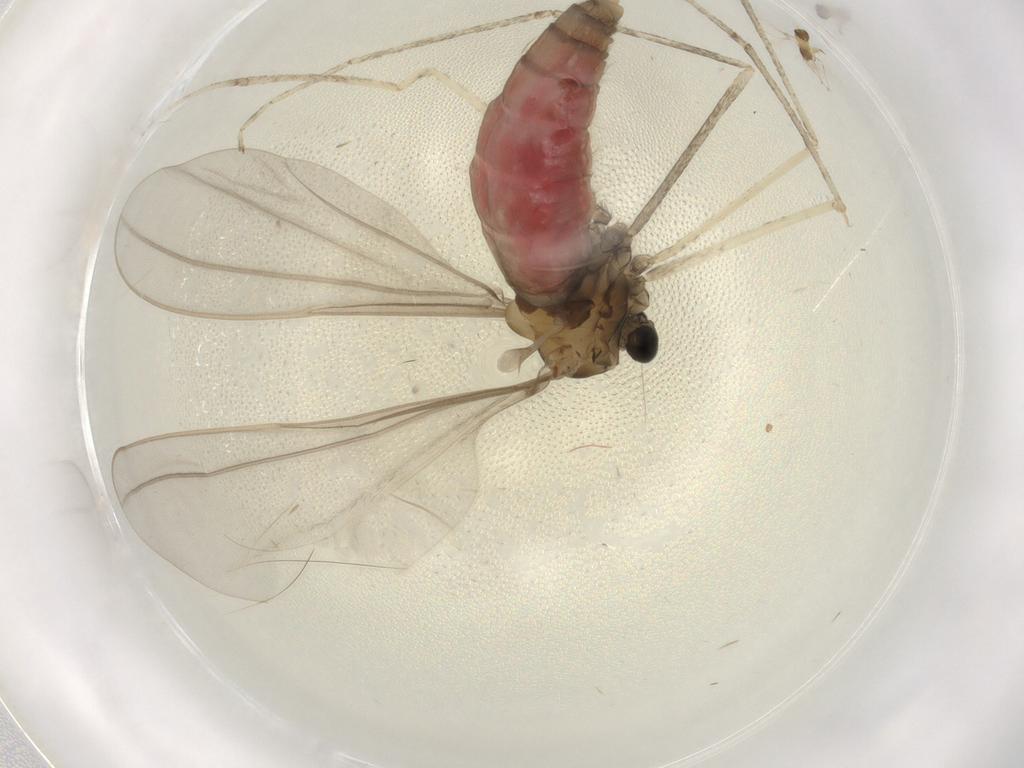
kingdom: Animalia
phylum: Arthropoda
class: Insecta
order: Diptera
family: Cecidomyiidae
